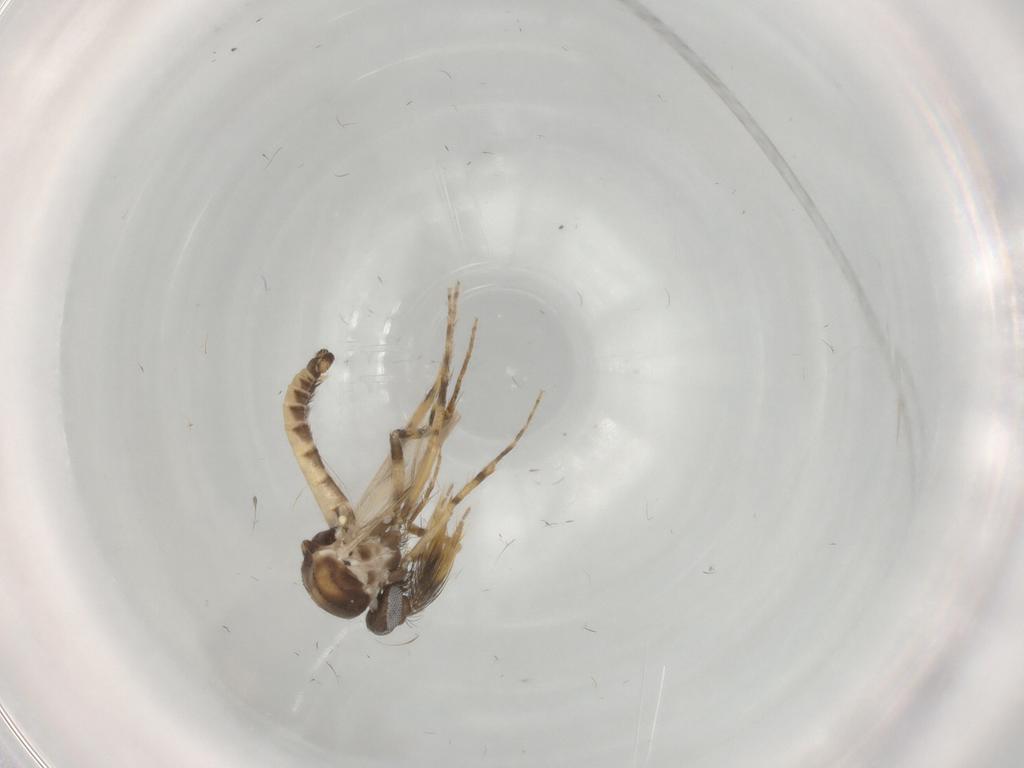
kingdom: Animalia
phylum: Arthropoda
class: Insecta
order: Diptera
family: Ceratopogonidae
